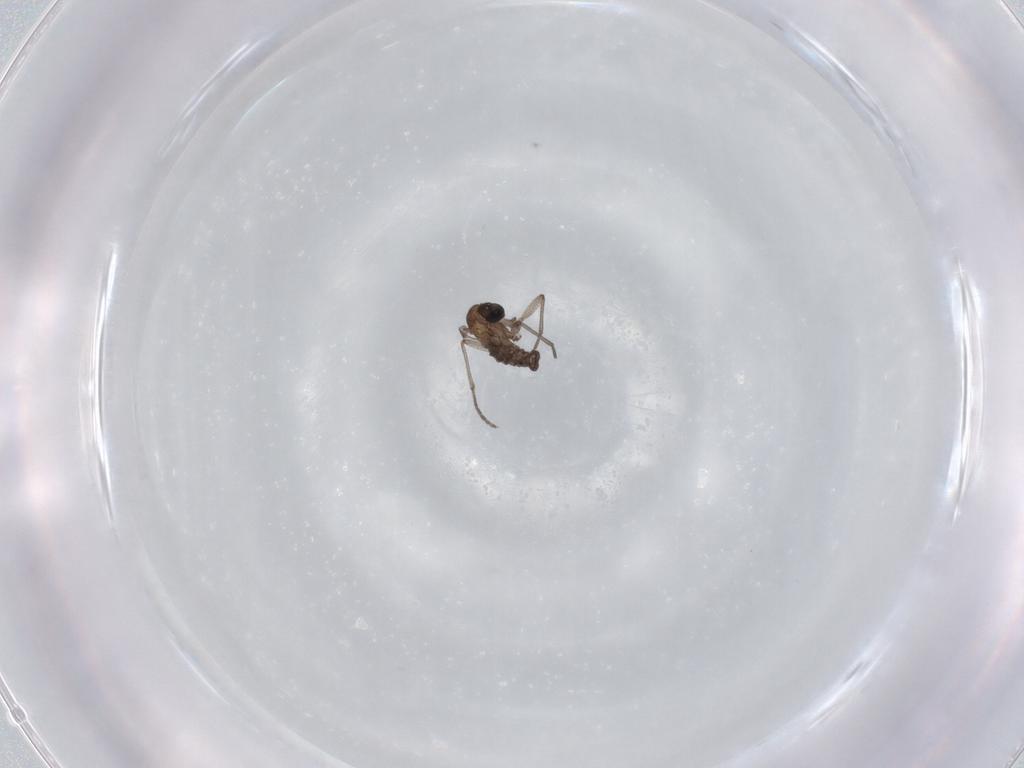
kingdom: Animalia
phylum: Arthropoda
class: Insecta
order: Diptera
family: Sciaridae
